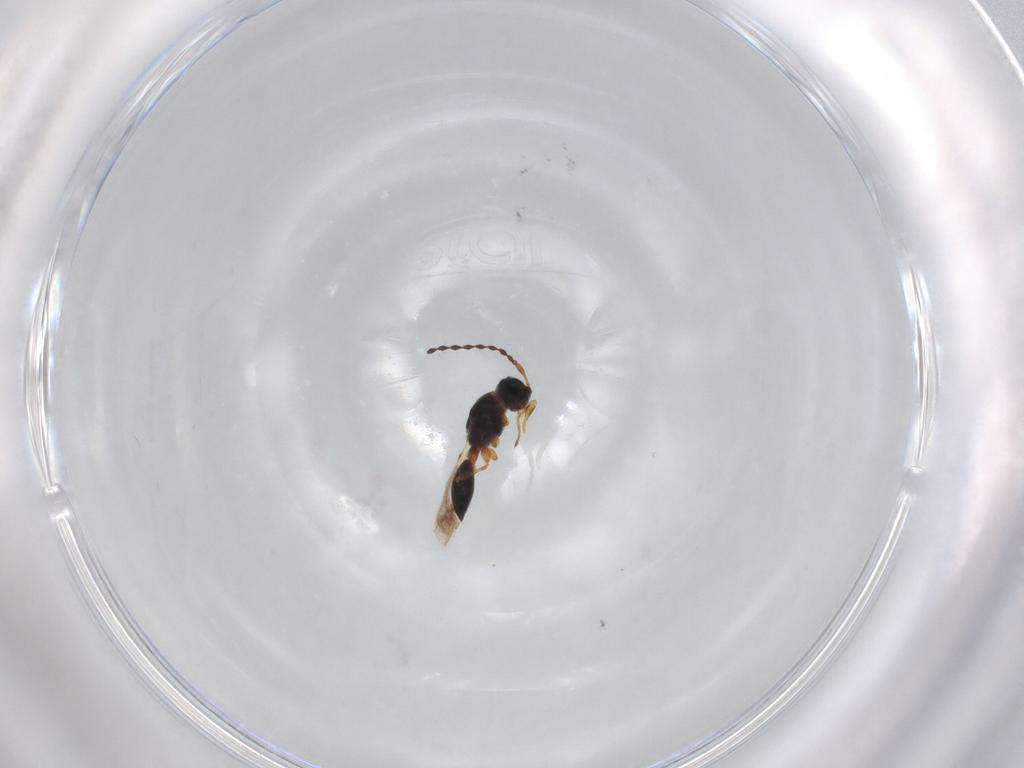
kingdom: Animalia
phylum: Arthropoda
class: Insecta
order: Hymenoptera
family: Diapriidae
